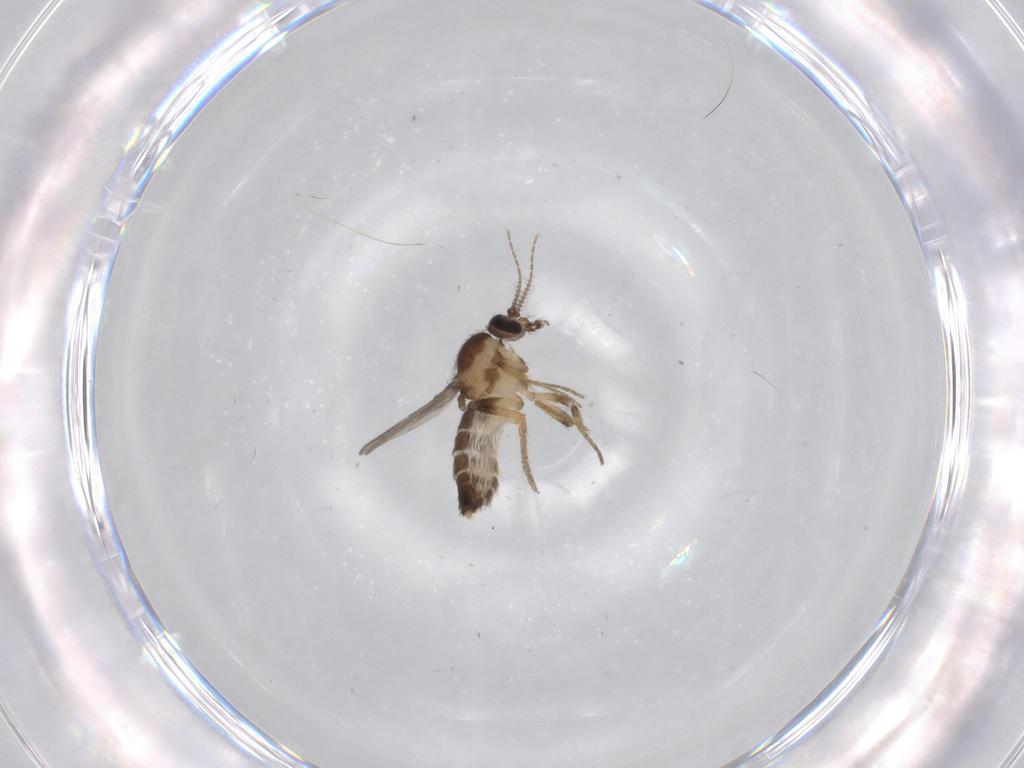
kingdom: Animalia
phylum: Arthropoda
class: Insecta
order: Diptera
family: Ceratopogonidae
